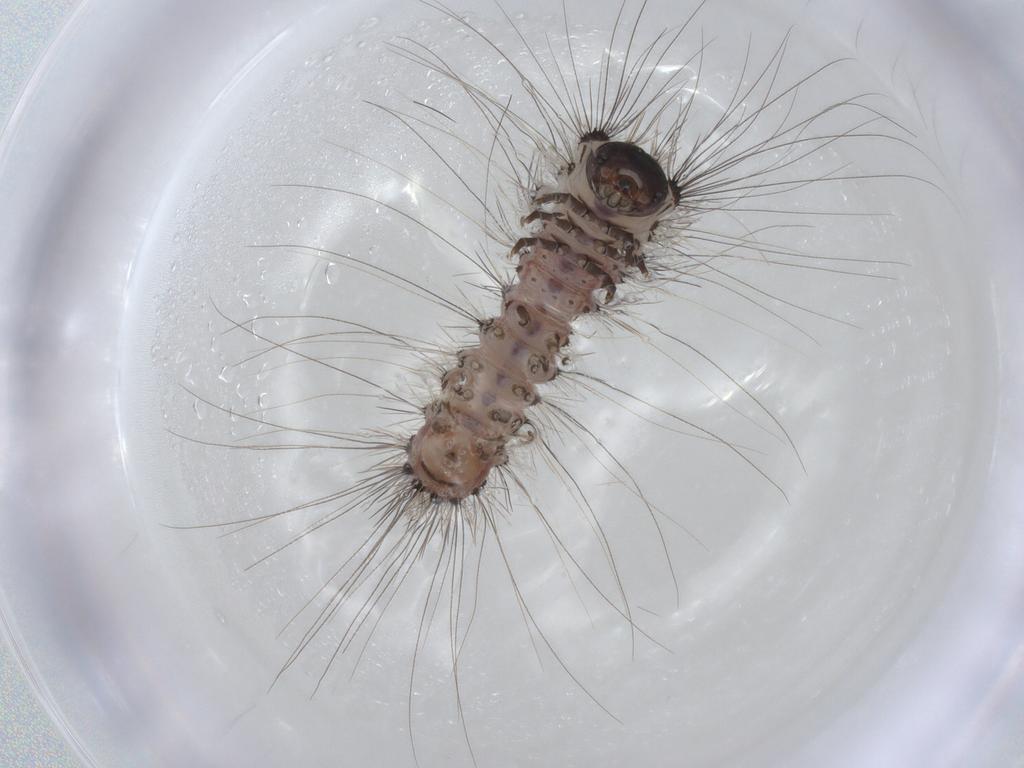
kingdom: Animalia
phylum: Arthropoda
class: Insecta
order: Lepidoptera
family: Erebidae
